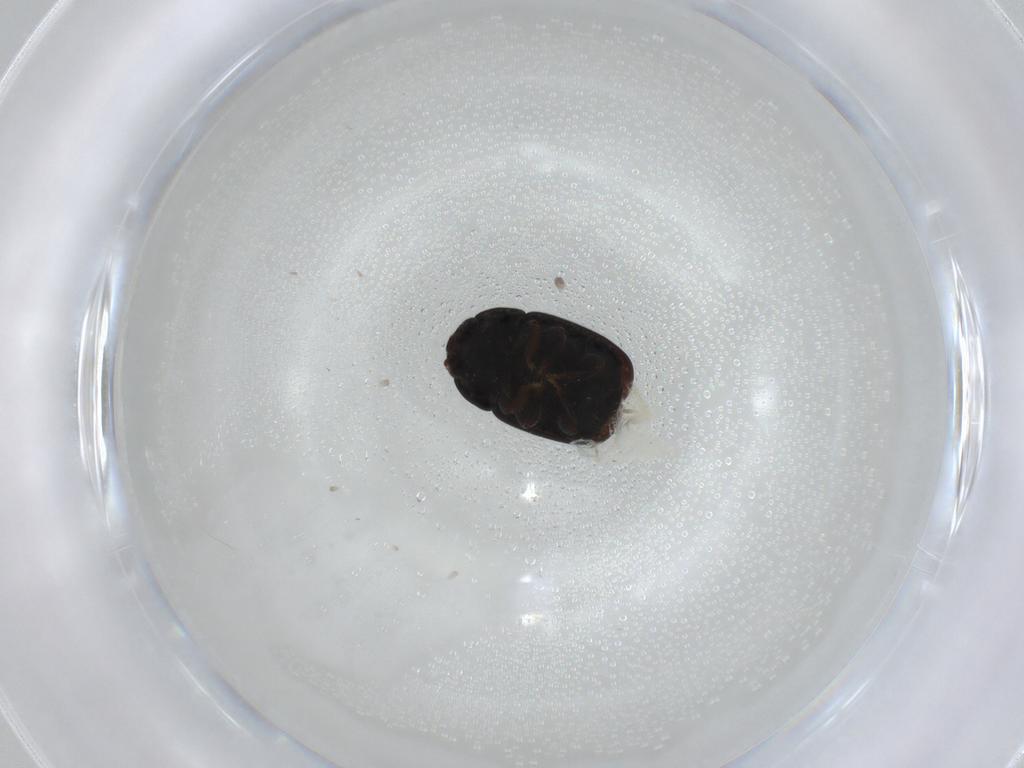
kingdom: Animalia
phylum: Arthropoda
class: Insecta
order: Coleoptera
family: Nitidulidae
